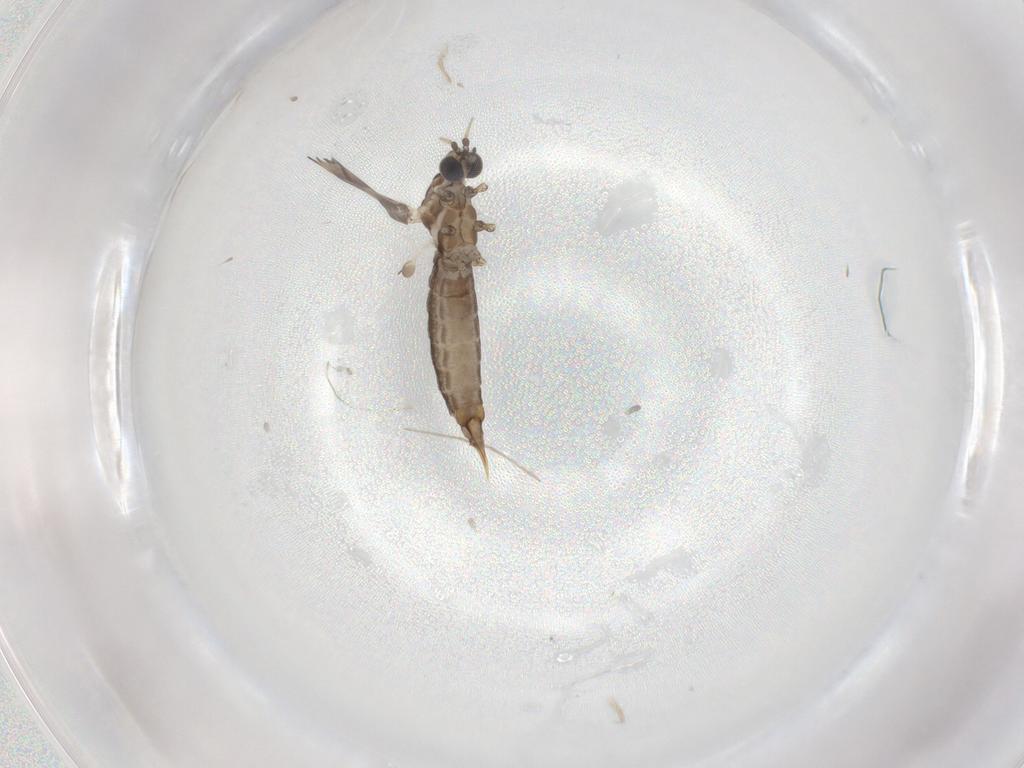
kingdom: Animalia
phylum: Arthropoda
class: Insecta
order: Diptera
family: Limoniidae
